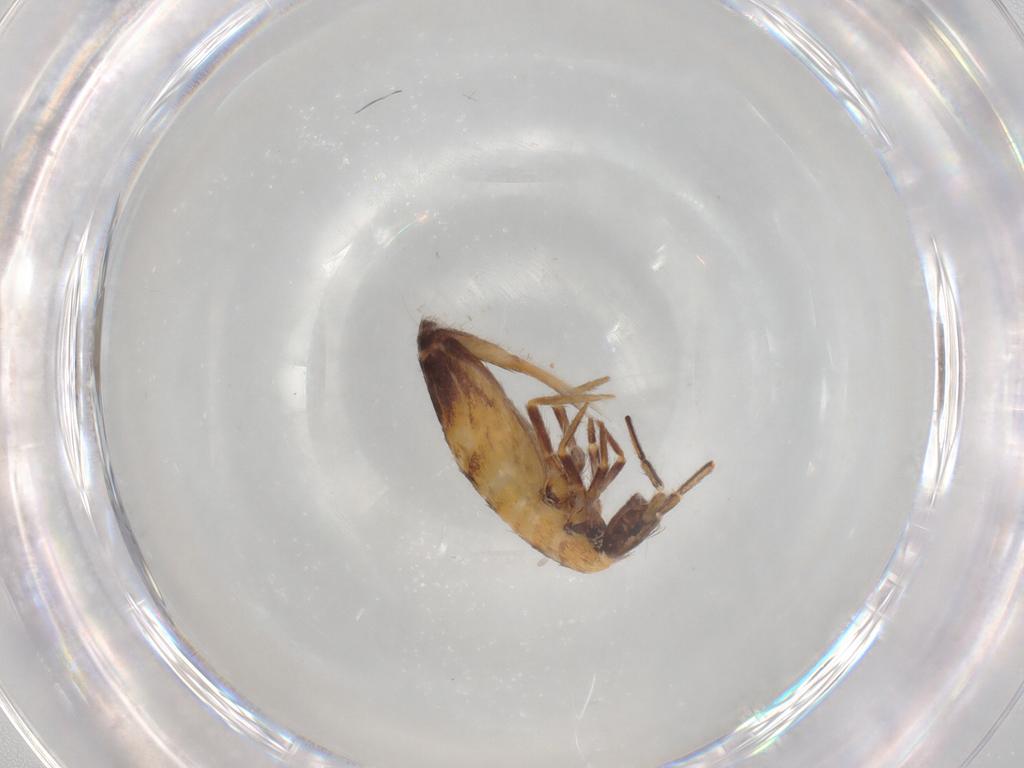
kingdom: Animalia
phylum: Arthropoda
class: Collembola
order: Entomobryomorpha
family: Entomobryidae
